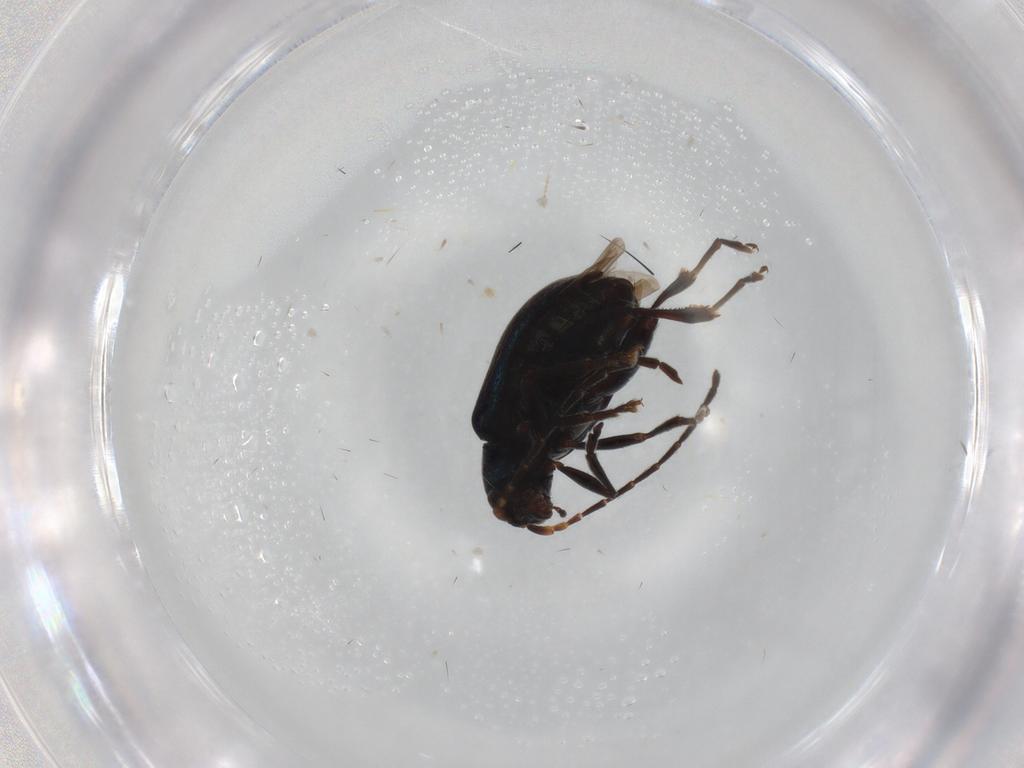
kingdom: Animalia
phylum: Arthropoda
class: Insecta
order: Coleoptera
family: Chrysomelidae
